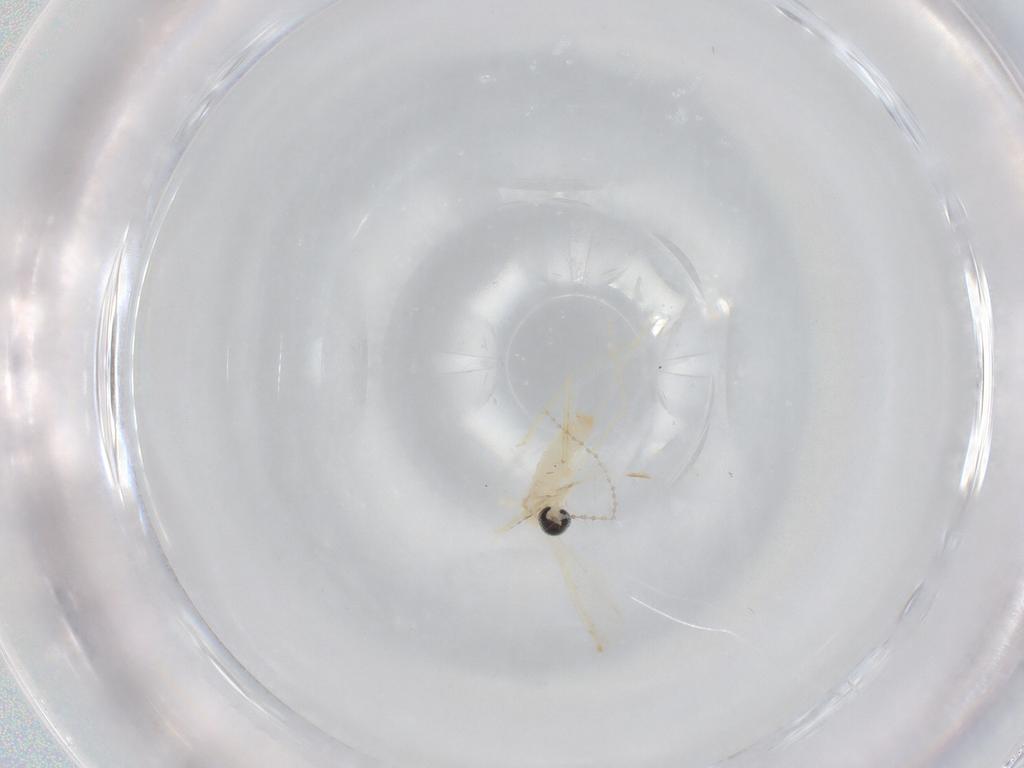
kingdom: Animalia
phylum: Arthropoda
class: Insecta
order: Diptera
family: Cecidomyiidae
